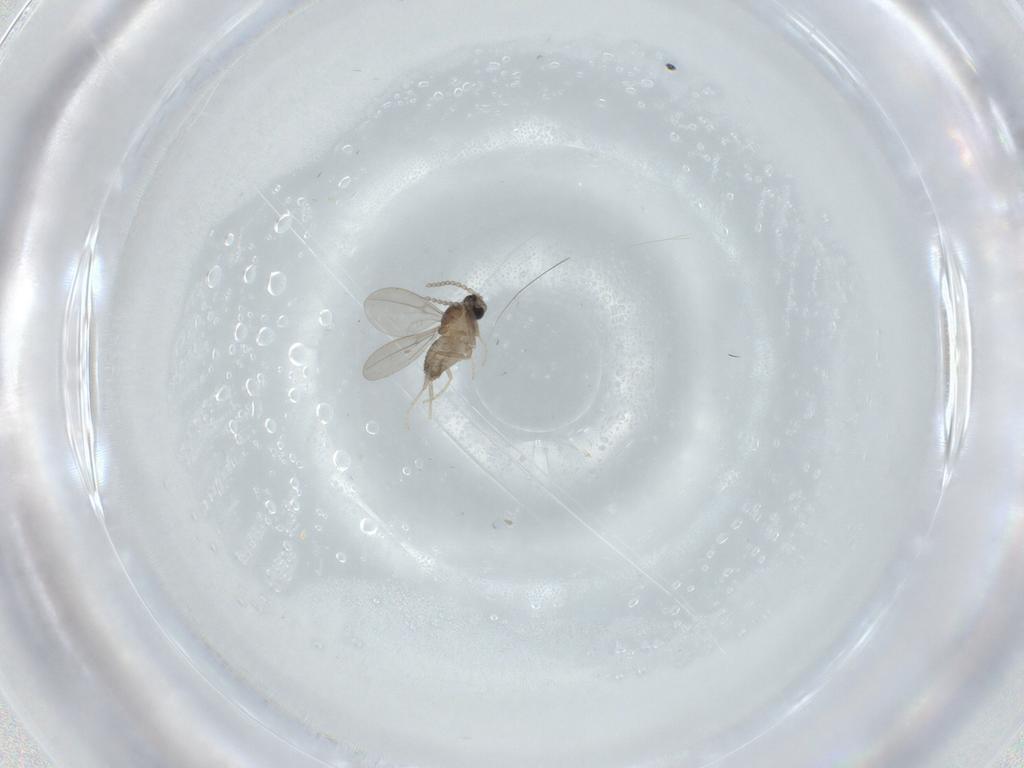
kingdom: Animalia
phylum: Arthropoda
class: Insecta
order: Diptera
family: Cecidomyiidae
